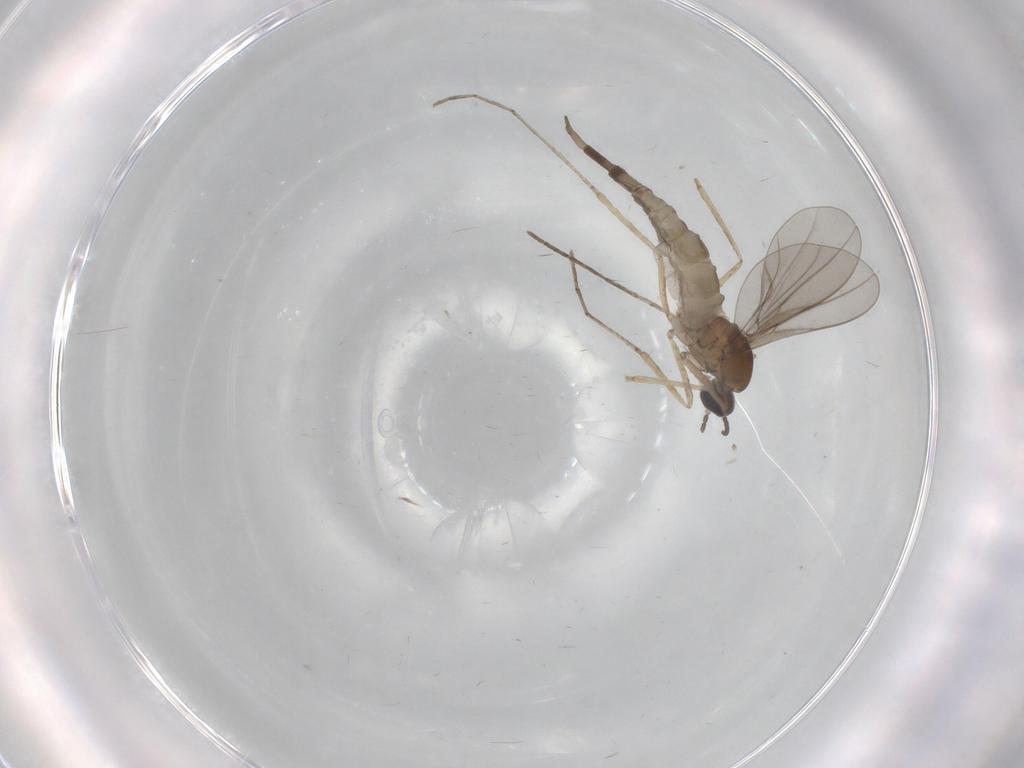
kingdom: Animalia
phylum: Arthropoda
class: Insecta
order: Diptera
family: Cecidomyiidae
